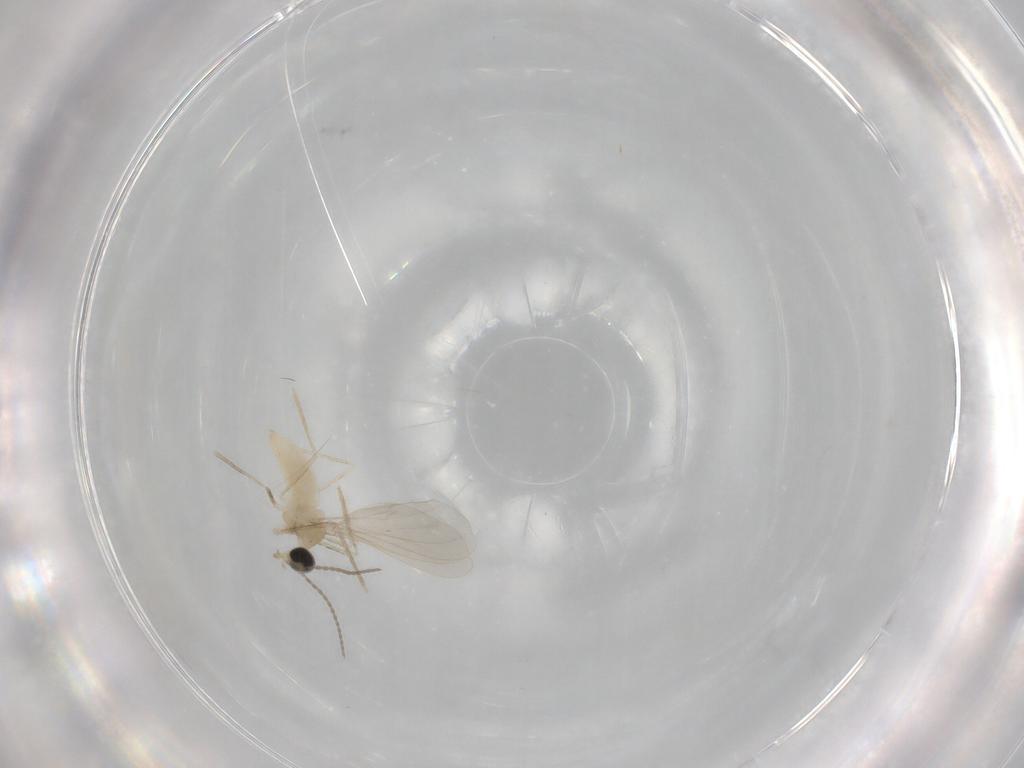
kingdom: Animalia
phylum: Arthropoda
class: Insecta
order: Diptera
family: Cecidomyiidae
